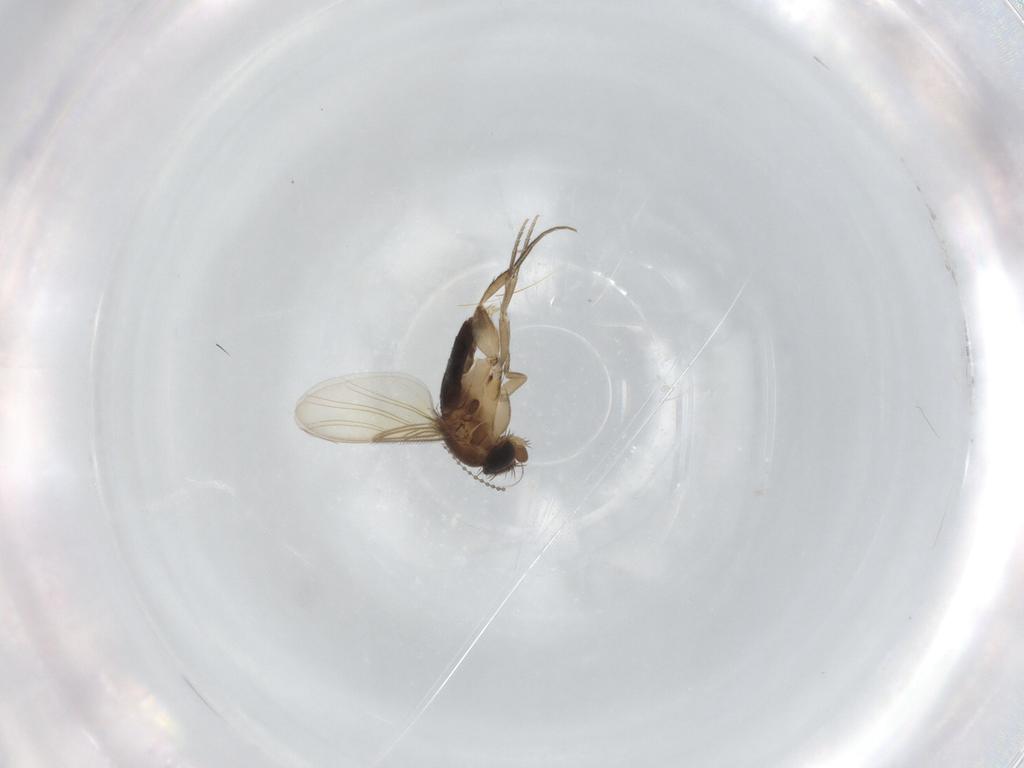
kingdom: Animalia
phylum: Arthropoda
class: Insecta
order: Diptera
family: Phoridae
